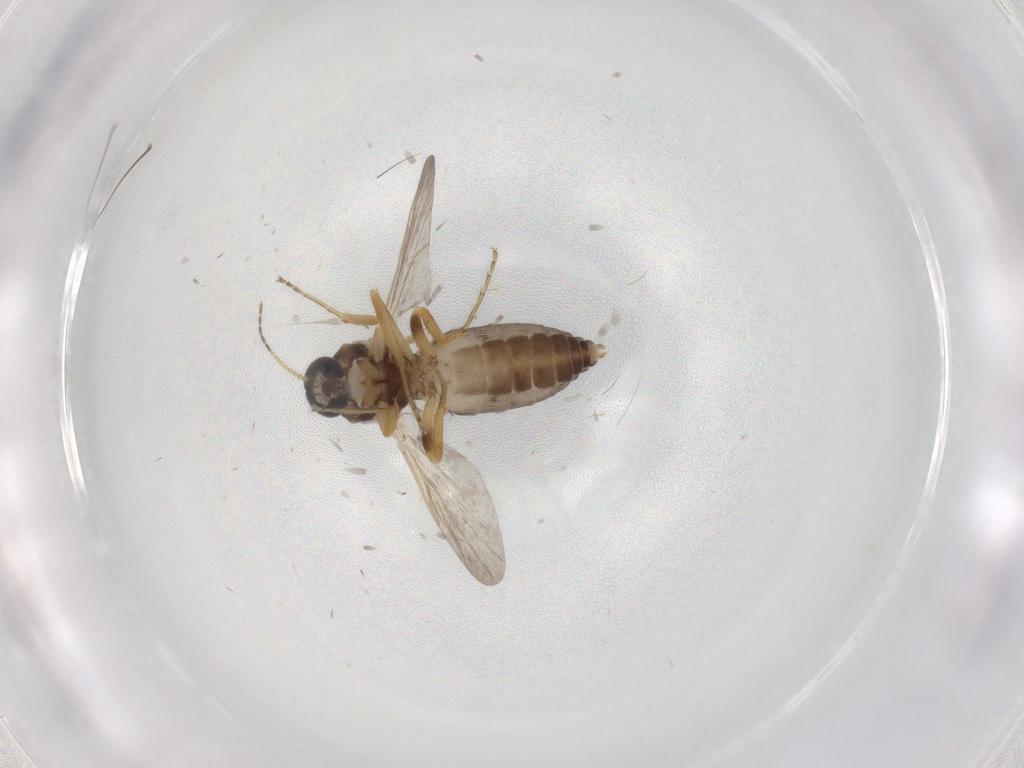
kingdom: Animalia
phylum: Arthropoda
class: Insecta
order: Diptera
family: Ceratopogonidae
